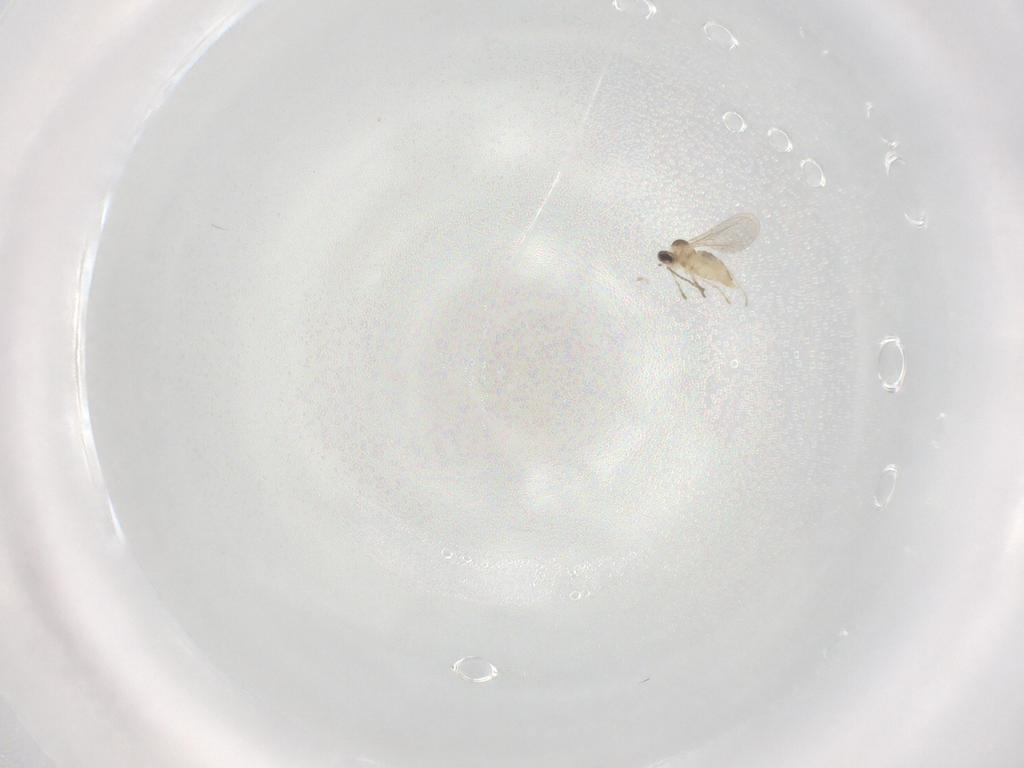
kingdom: Animalia
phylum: Arthropoda
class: Insecta
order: Diptera
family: Cecidomyiidae
